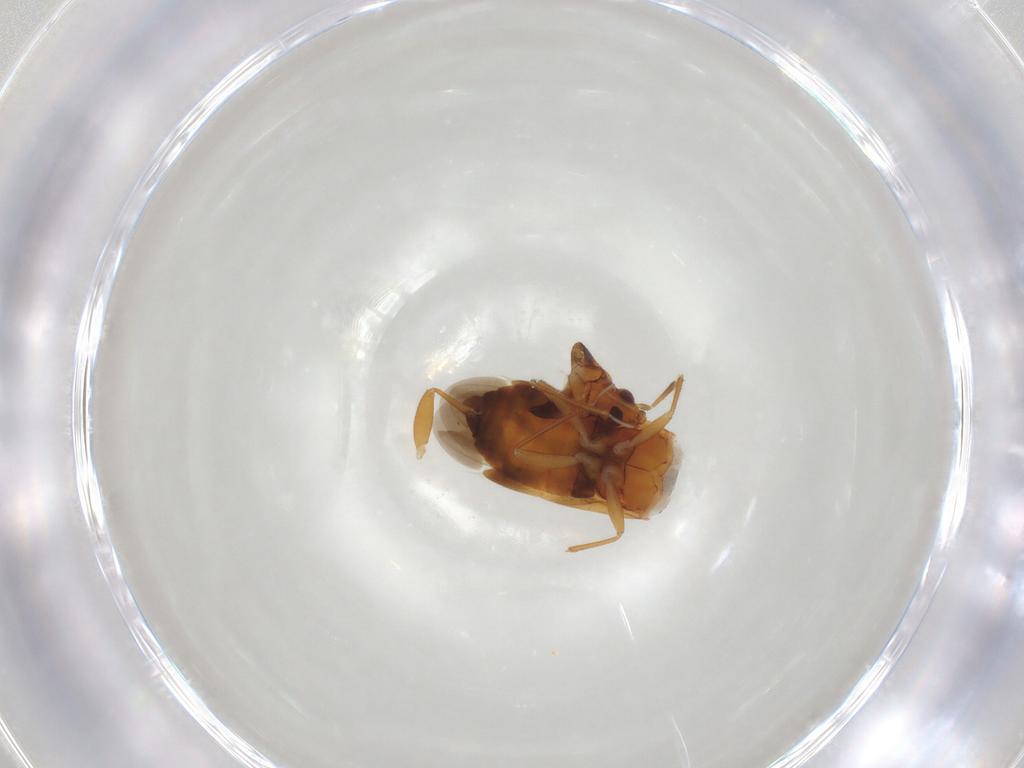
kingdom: Animalia
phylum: Arthropoda
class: Insecta
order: Hemiptera
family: Anthocoridae
